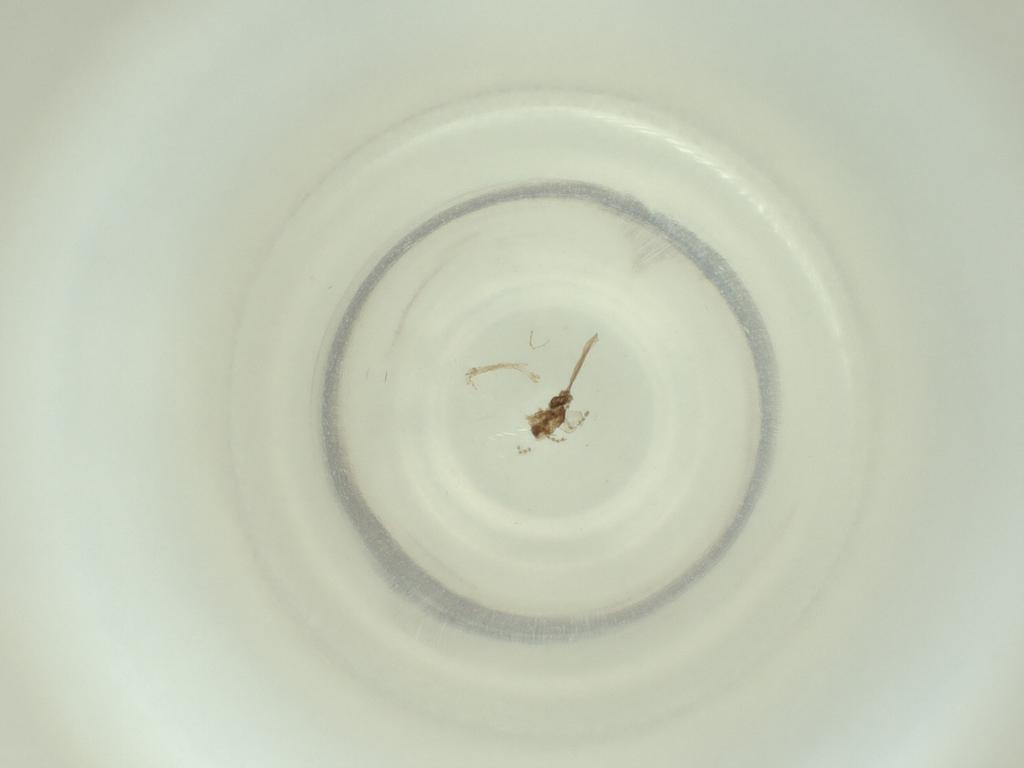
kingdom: Animalia
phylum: Arthropoda
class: Insecta
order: Diptera
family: Cecidomyiidae
